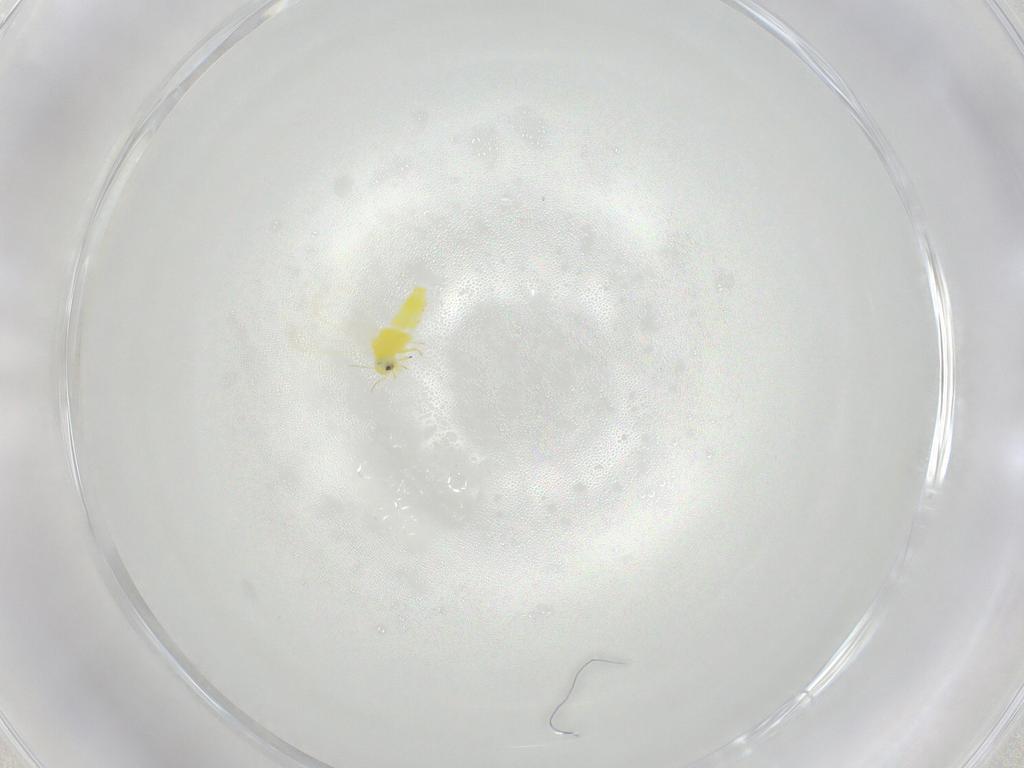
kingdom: Animalia
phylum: Arthropoda
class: Insecta
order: Hemiptera
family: Aleyrodidae
